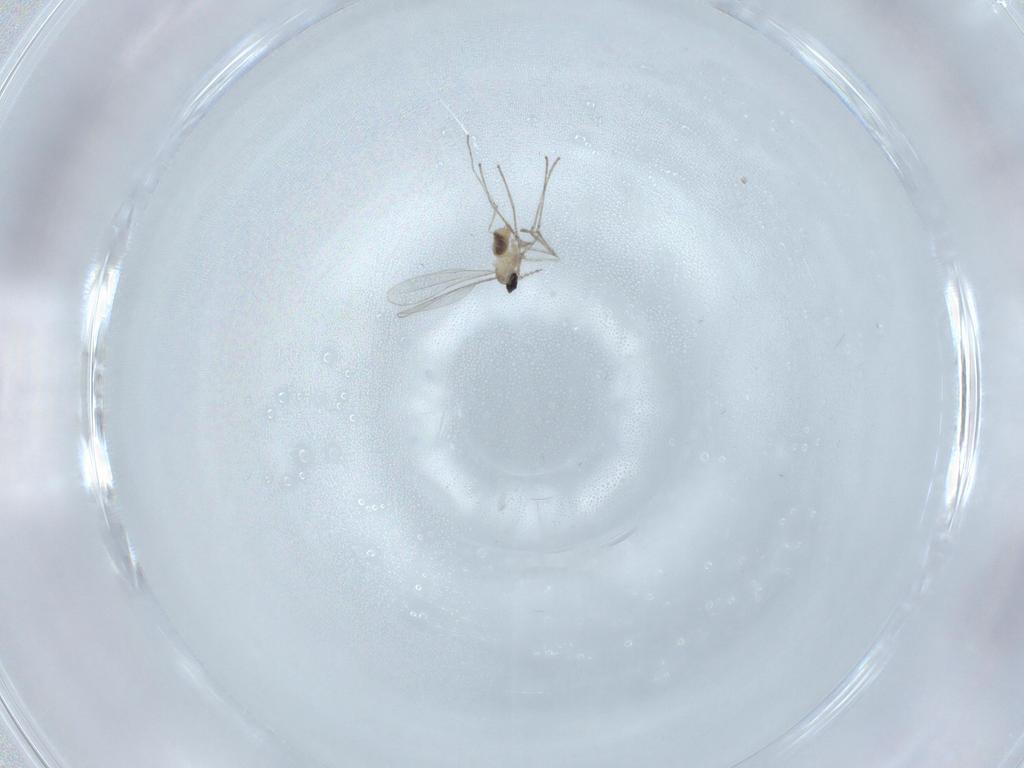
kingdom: Animalia
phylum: Arthropoda
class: Insecta
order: Diptera
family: Cecidomyiidae
